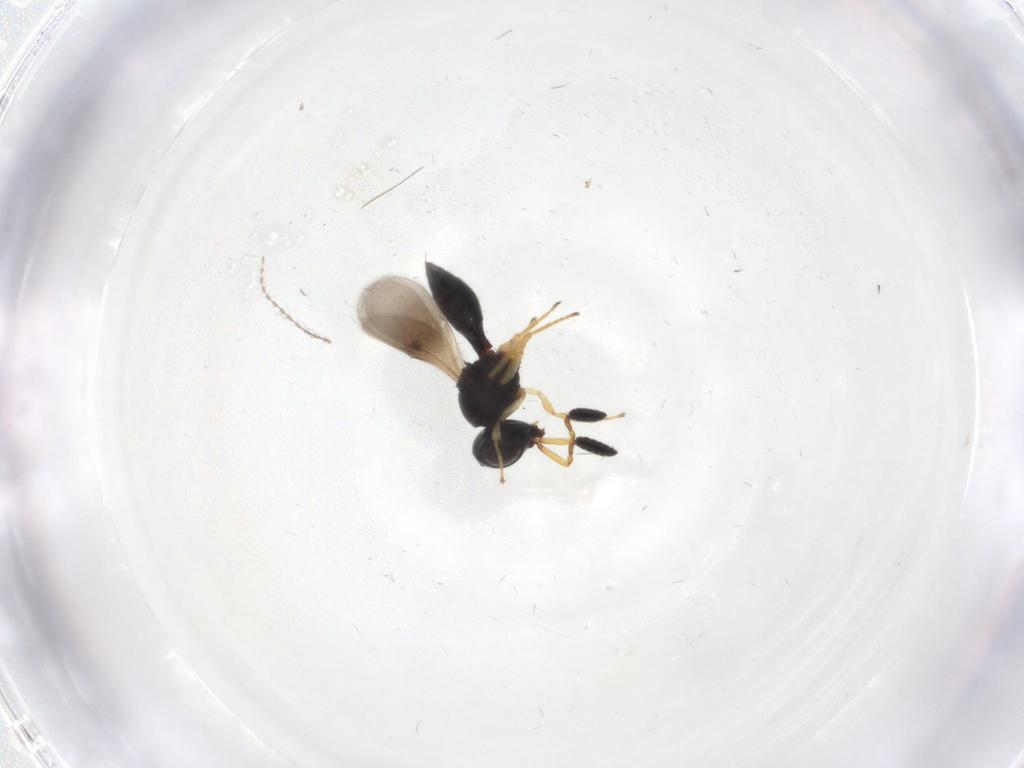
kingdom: Animalia
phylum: Arthropoda
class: Insecta
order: Hymenoptera
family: Scelionidae
